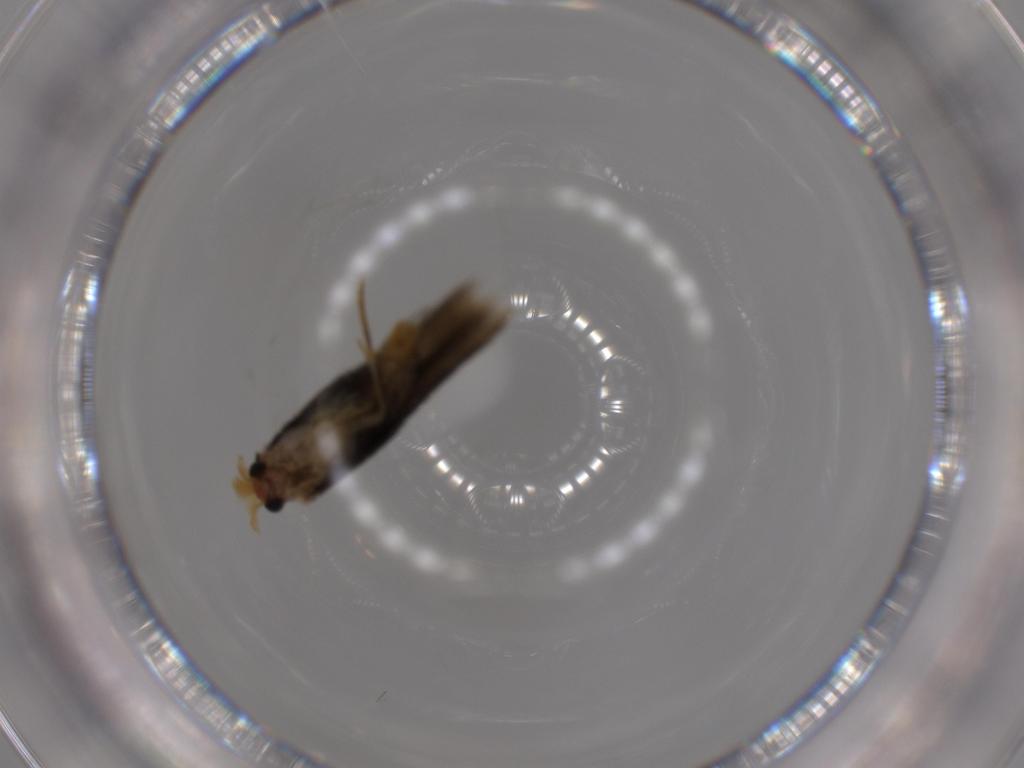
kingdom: Animalia
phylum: Arthropoda
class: Insecta
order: Lepidoptera
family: Nepticulidae
